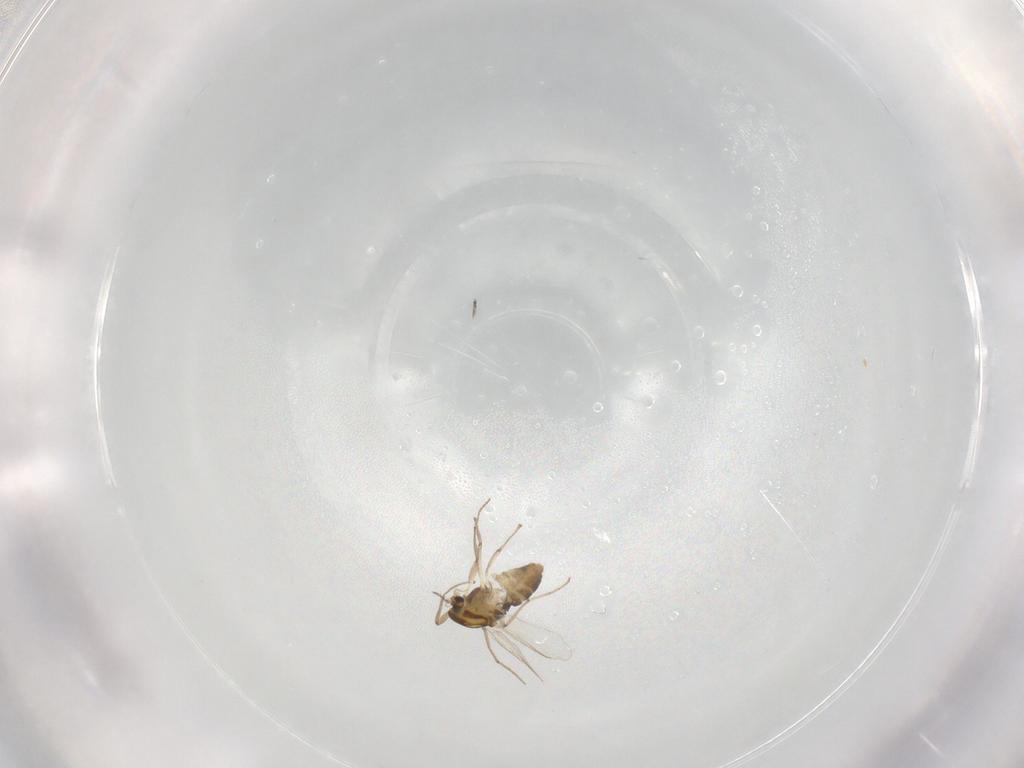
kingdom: Animalia
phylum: Arthropoda
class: Insecta
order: Diptera
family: Chironomidae
